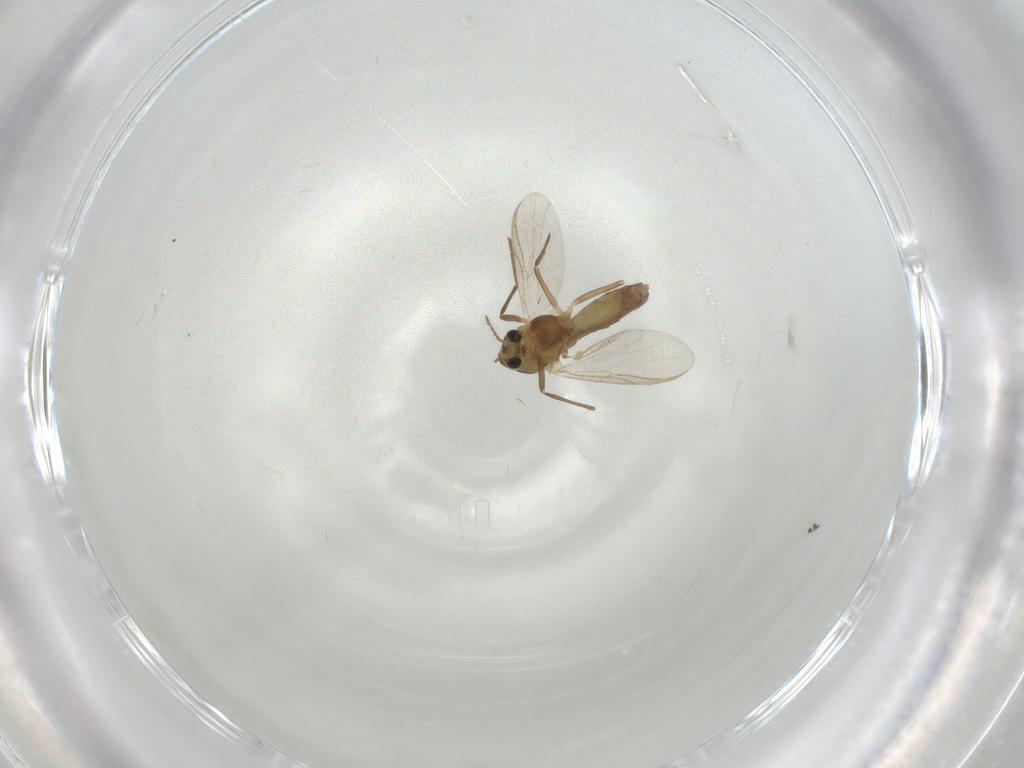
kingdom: Animalia
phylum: Arthropoda
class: Insecta
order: Diptera
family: Chironomidae
